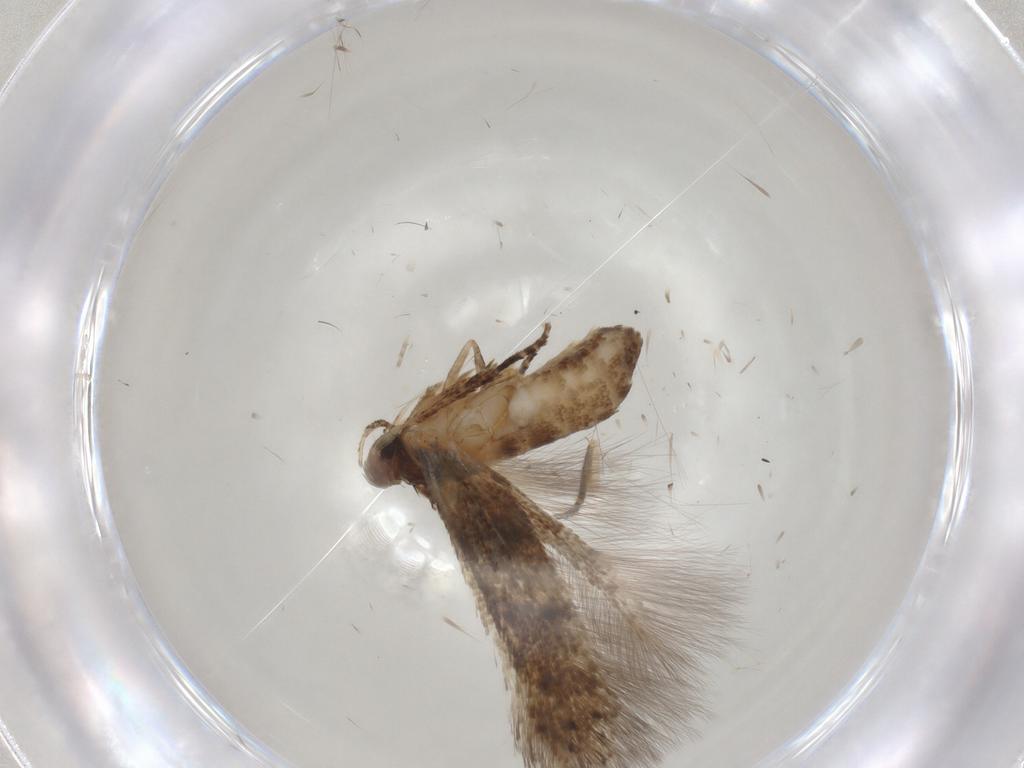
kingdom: Animalia
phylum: Arthropoda
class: Insecta
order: Lepidoptera
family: Cosmopterigidae
